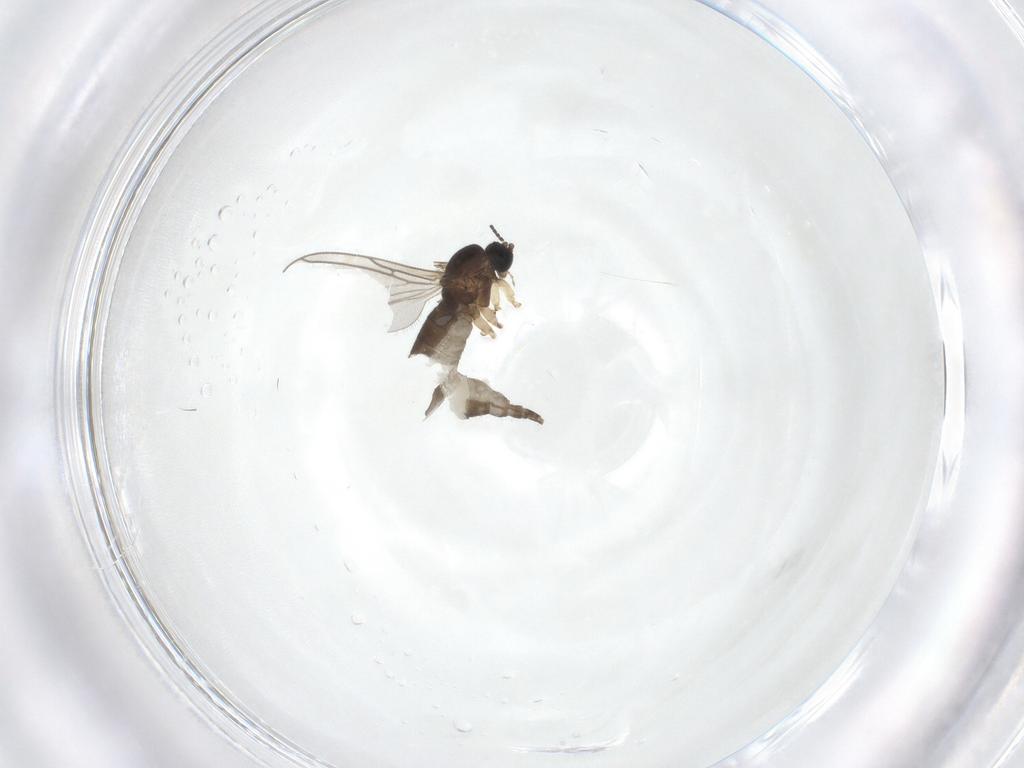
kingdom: Animalia
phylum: Arthropoda
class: Insecta
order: Diptera
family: Sciaridae
